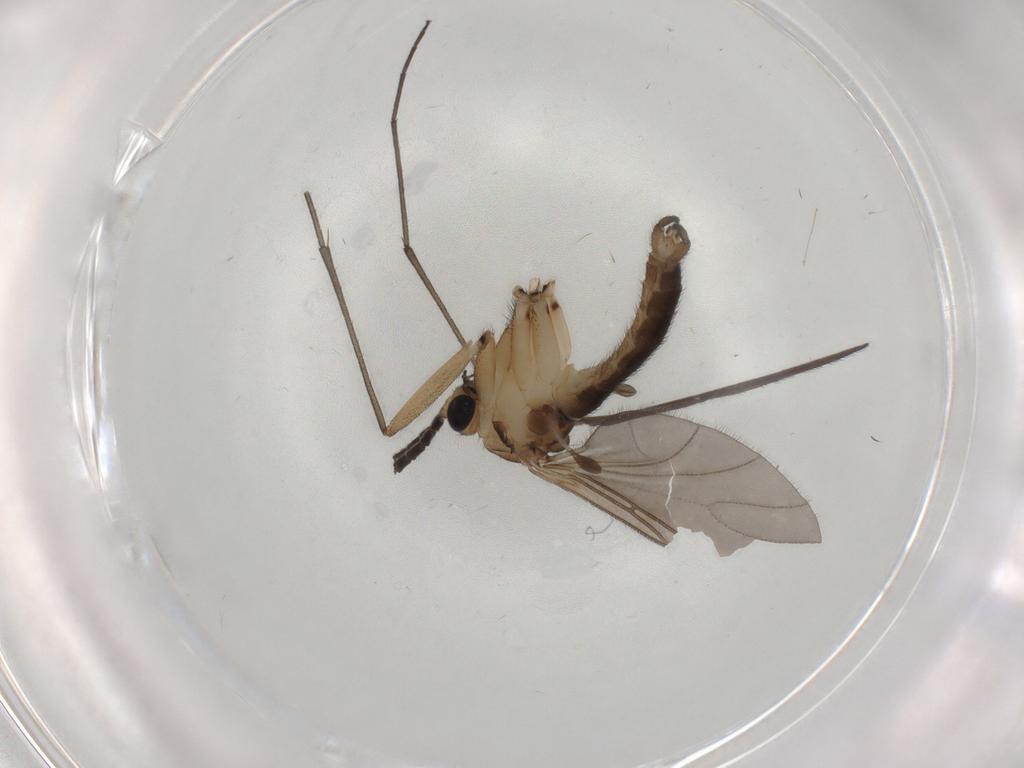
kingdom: Animalia
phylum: Arthropoda
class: Insecta
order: Diptera
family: Sciaridae
